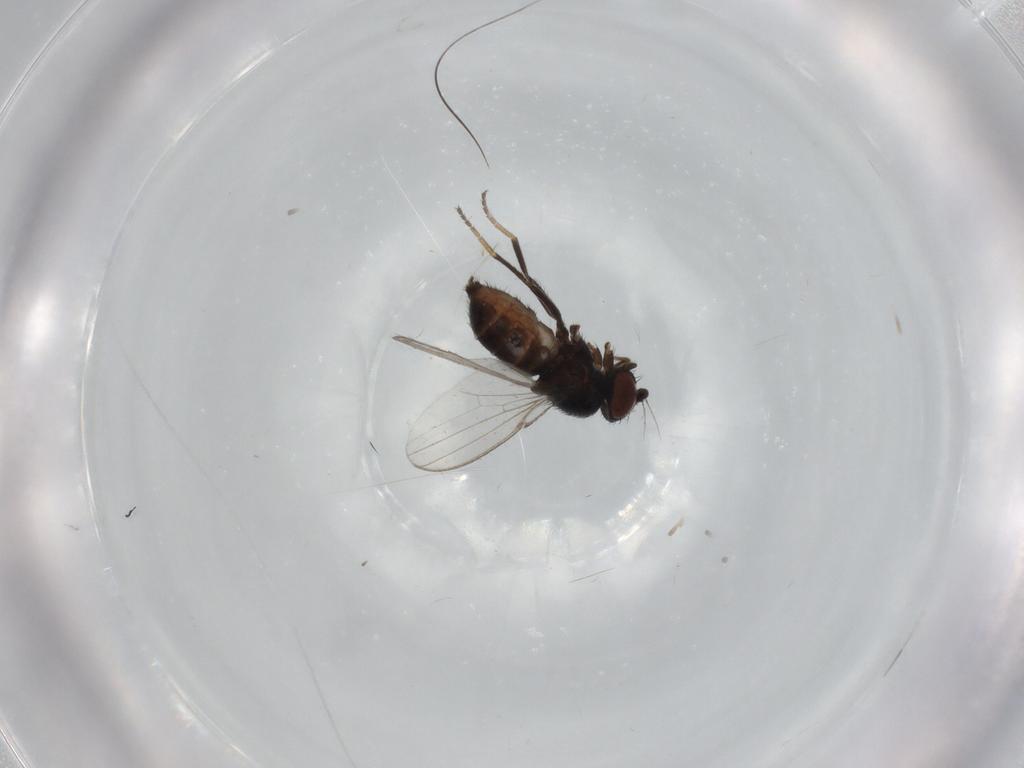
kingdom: Animalia
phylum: Arthropoda
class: Insecta
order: Diptera
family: Milichiidae
